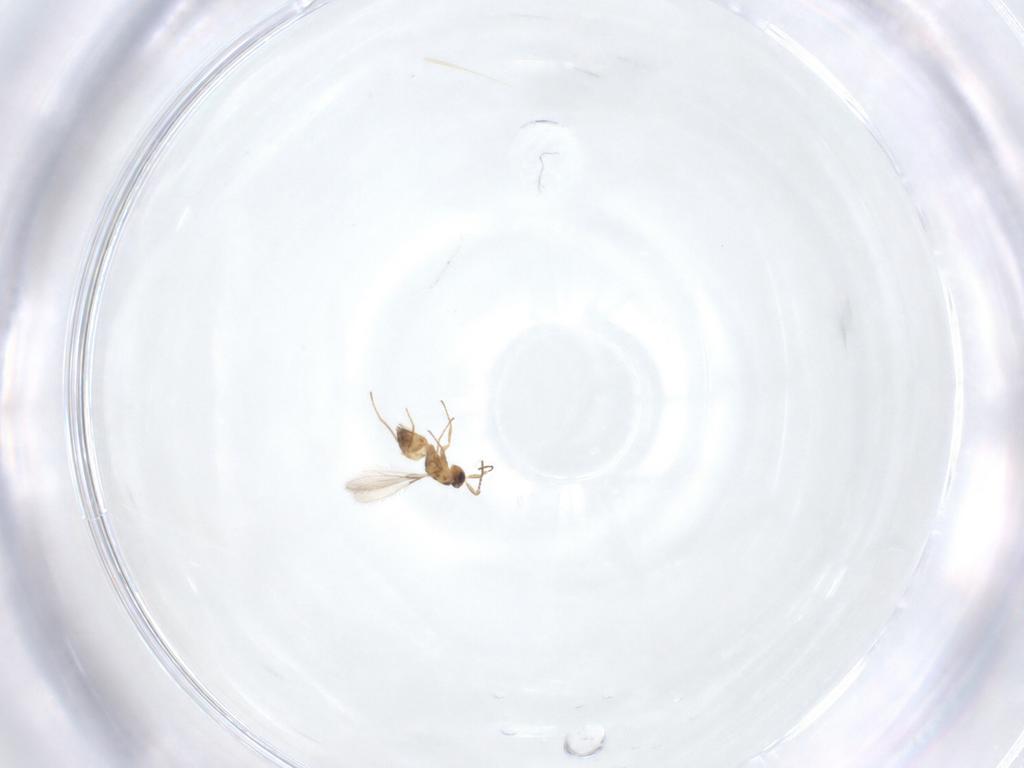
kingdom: Animalia
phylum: Arthropoda
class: Insecta
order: Hymenoptera
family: Mymaridae
